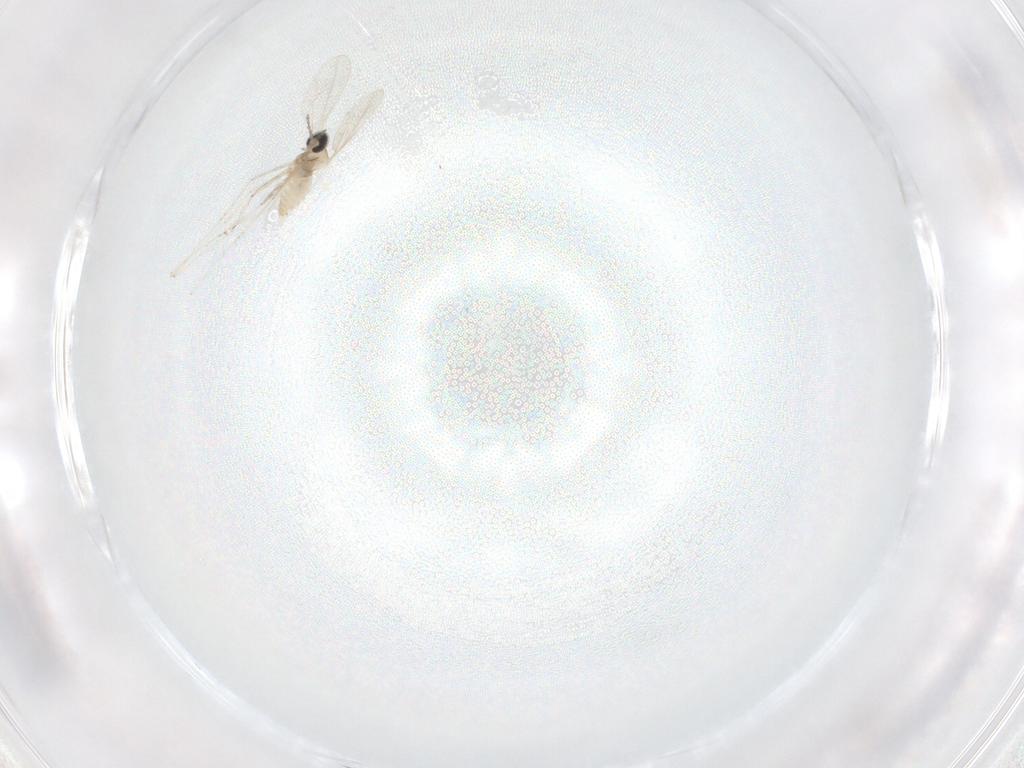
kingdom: Animalia
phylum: Arthropoda
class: Insecta
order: Diptera
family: Cecidomyiidae
